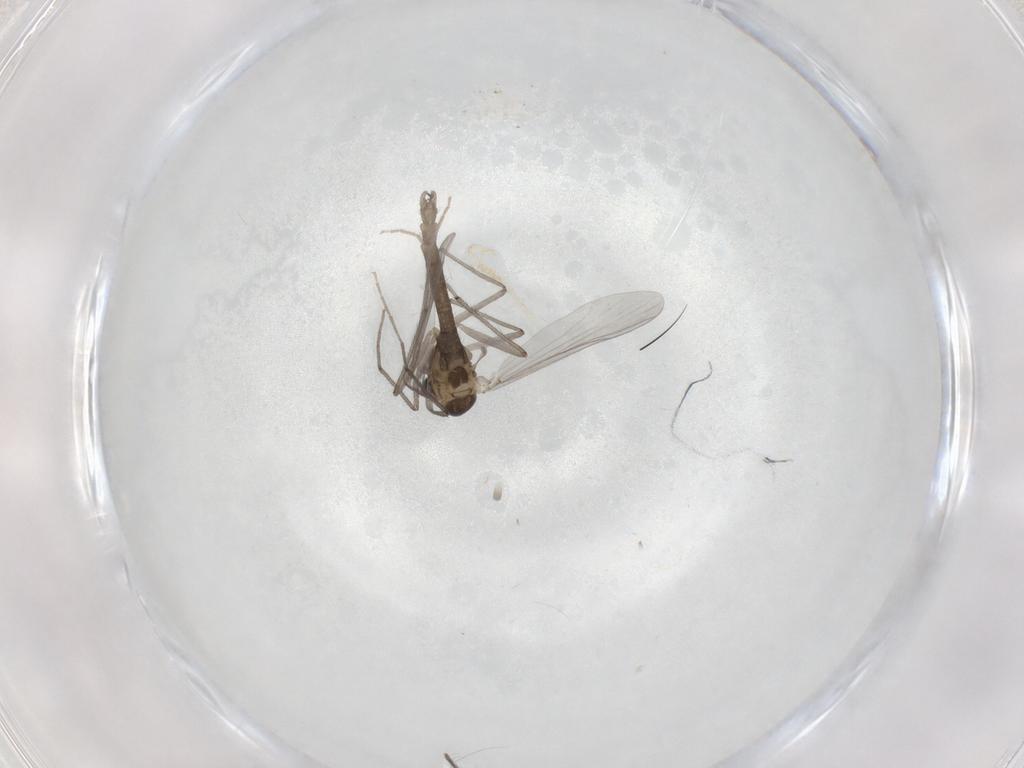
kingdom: Animalia
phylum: Arthropoda
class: Insecta
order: Diptera
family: Phoridae
